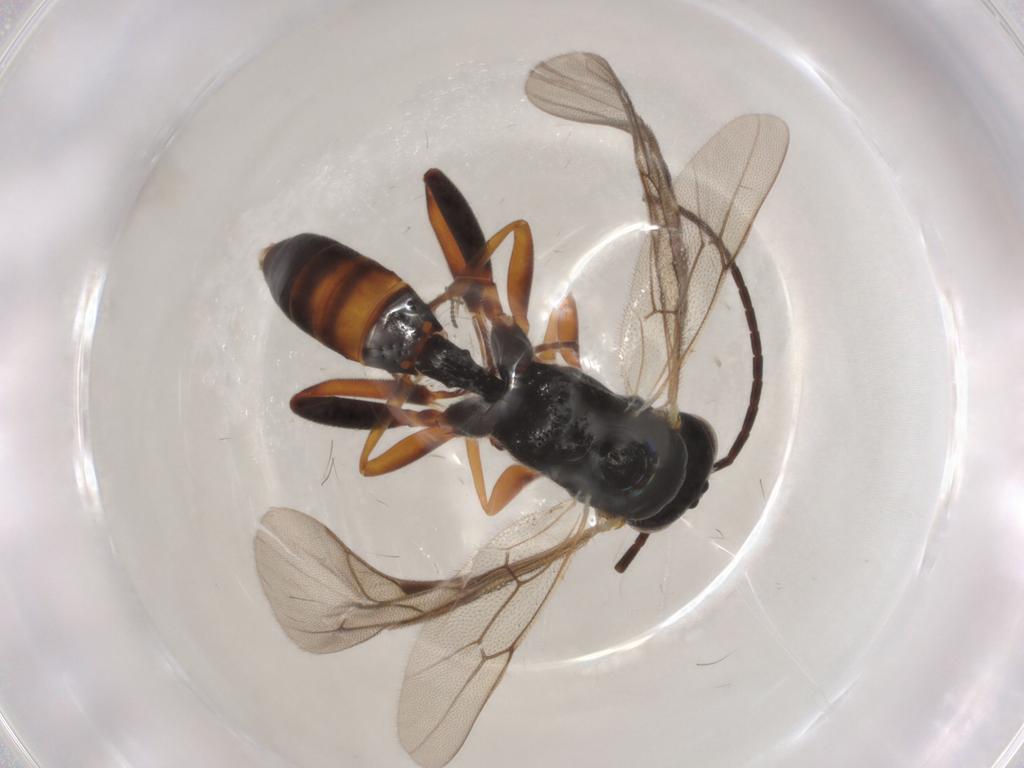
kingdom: Animalia
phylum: Arthropoda
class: Insecta
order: Hymenoptera
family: Ichneumonidae
